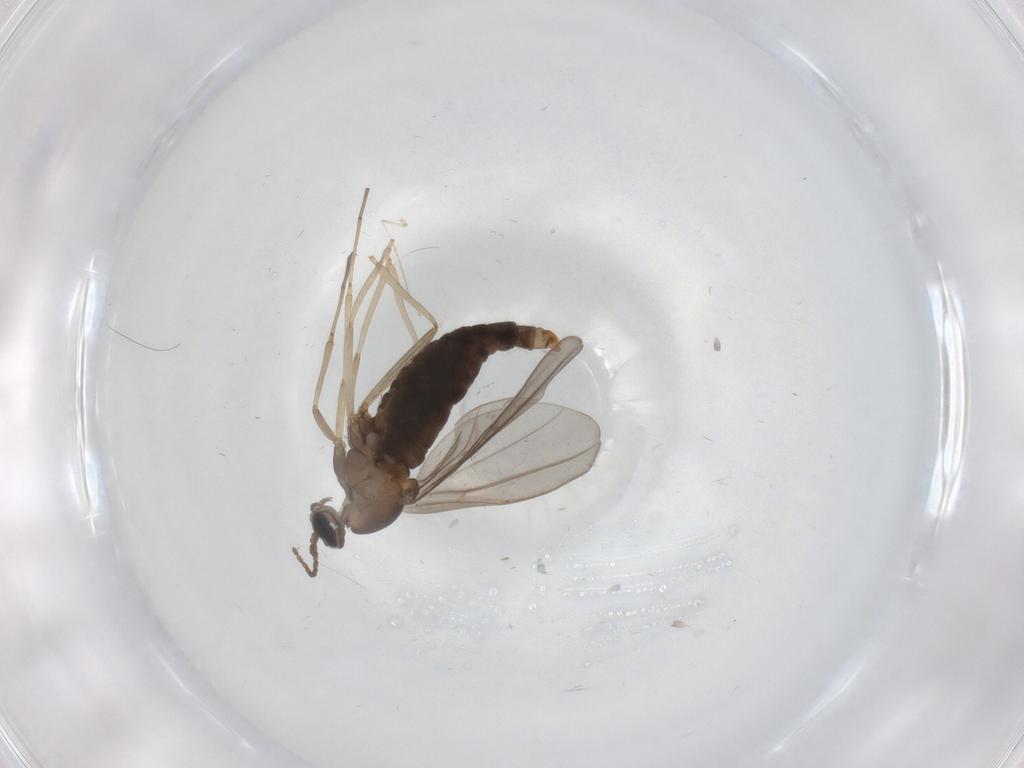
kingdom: Animalia
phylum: Arthropoda
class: Insecta
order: Diptera
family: Cecidomyiidae
